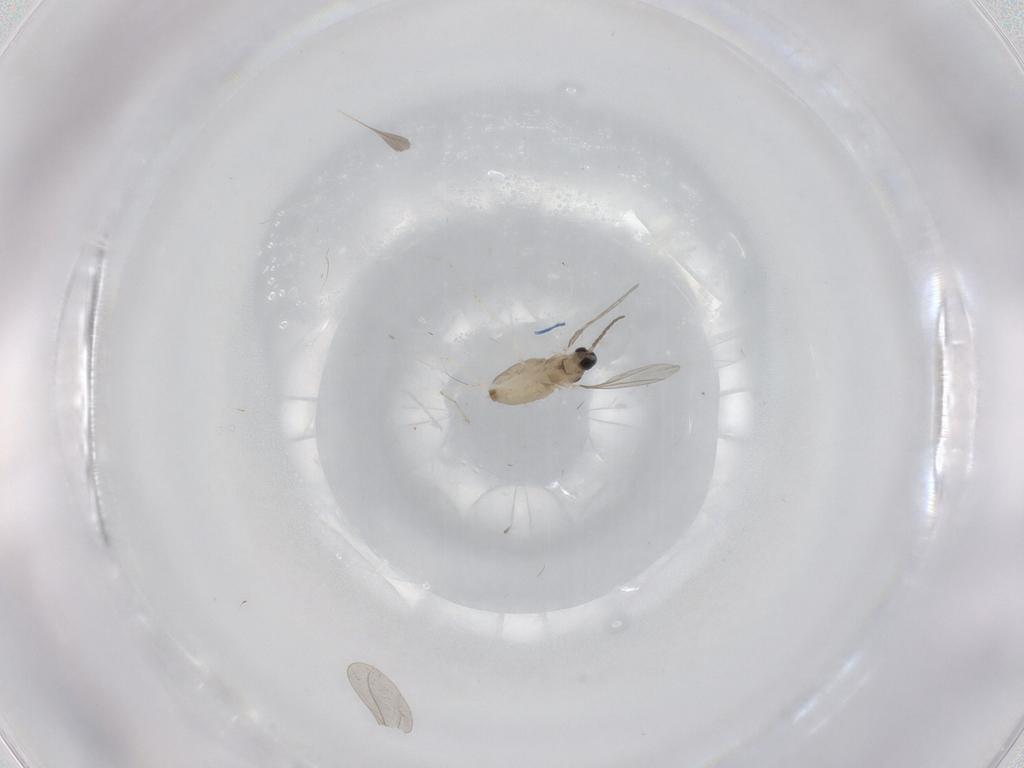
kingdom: Animalia
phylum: Arthropoda
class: Insecta
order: Diptera
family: Cecidomyiidae
